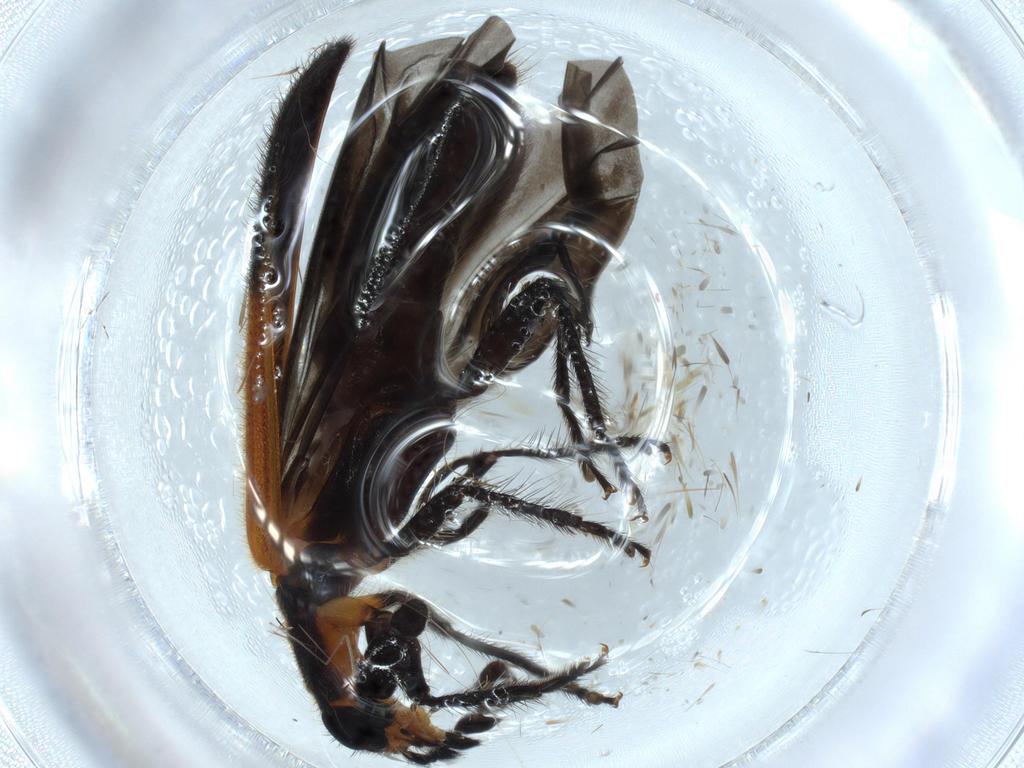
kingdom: Animalia
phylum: Arthropoda
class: Insecta
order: Coleoptera
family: Cleridae
